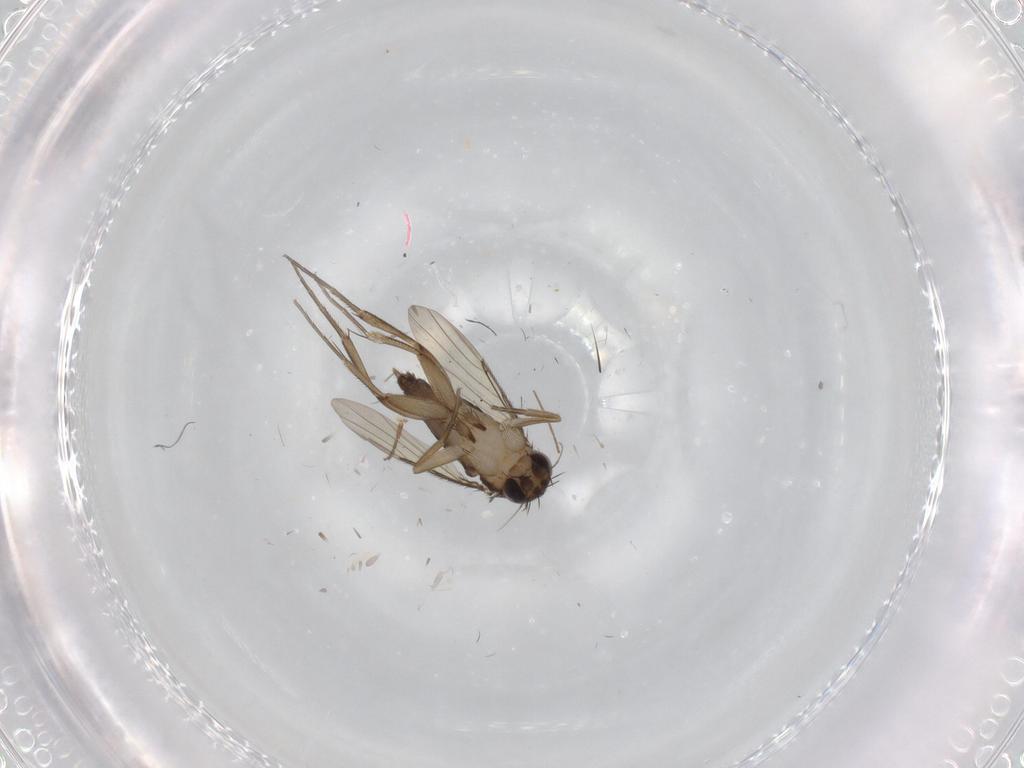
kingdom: Animalia
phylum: Arthropoda
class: Insecta
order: Diptera
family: Phoridae
